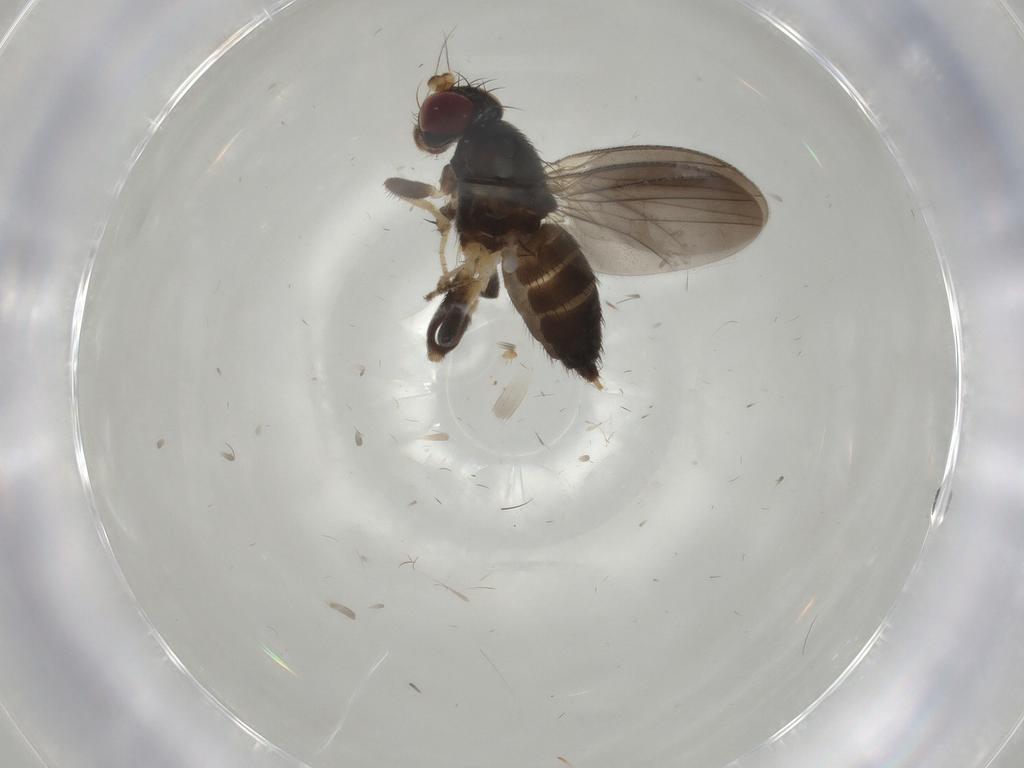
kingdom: Animalia
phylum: Arthropoda
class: Insecta
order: Diptera
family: Sciaridae
